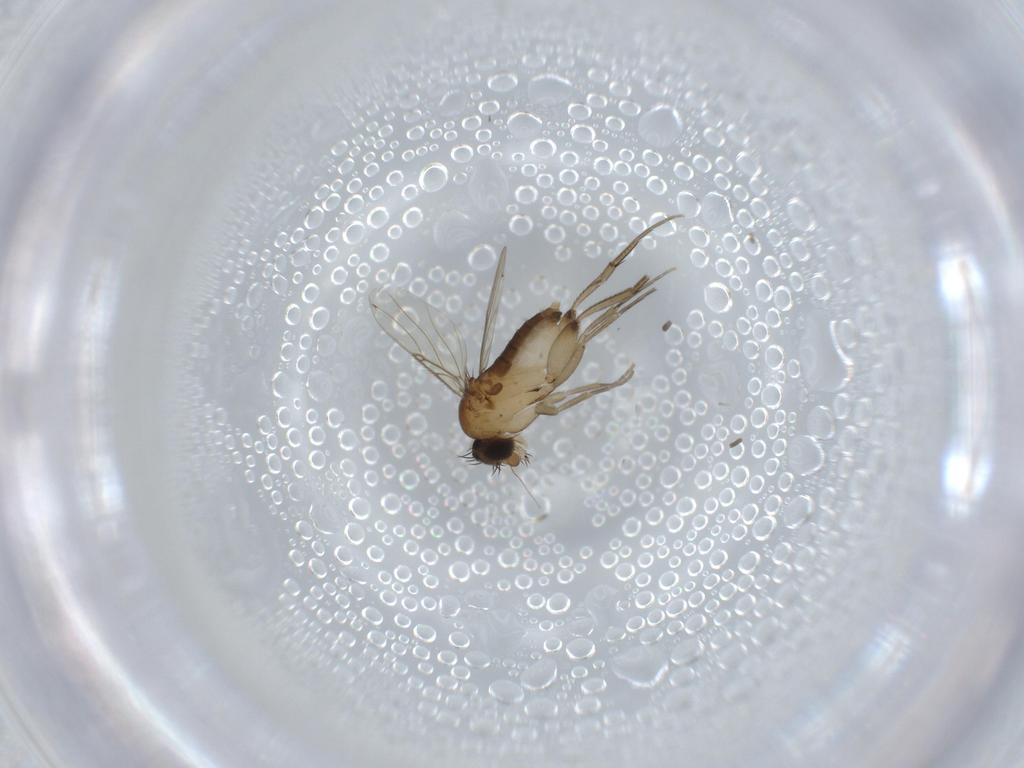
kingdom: Animalia
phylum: Arthropoda
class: Insecta
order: Diptera
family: Phoridae
